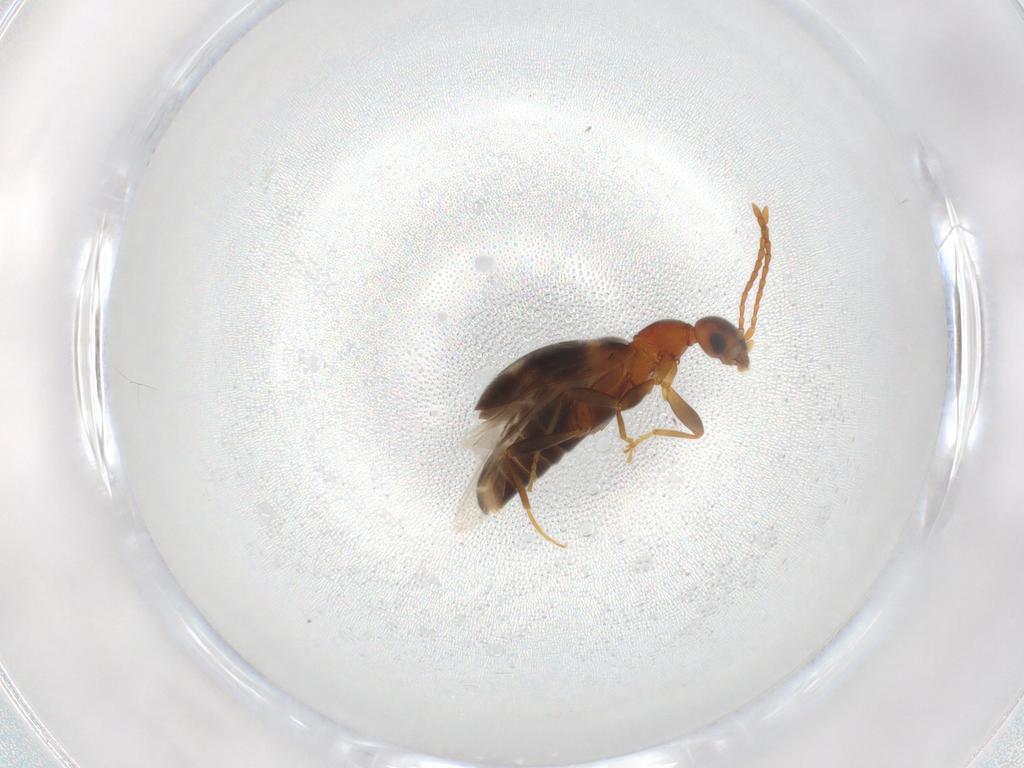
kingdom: Animalia
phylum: Arthropoda
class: Insecta
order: Coleoptera
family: Anthicidae
